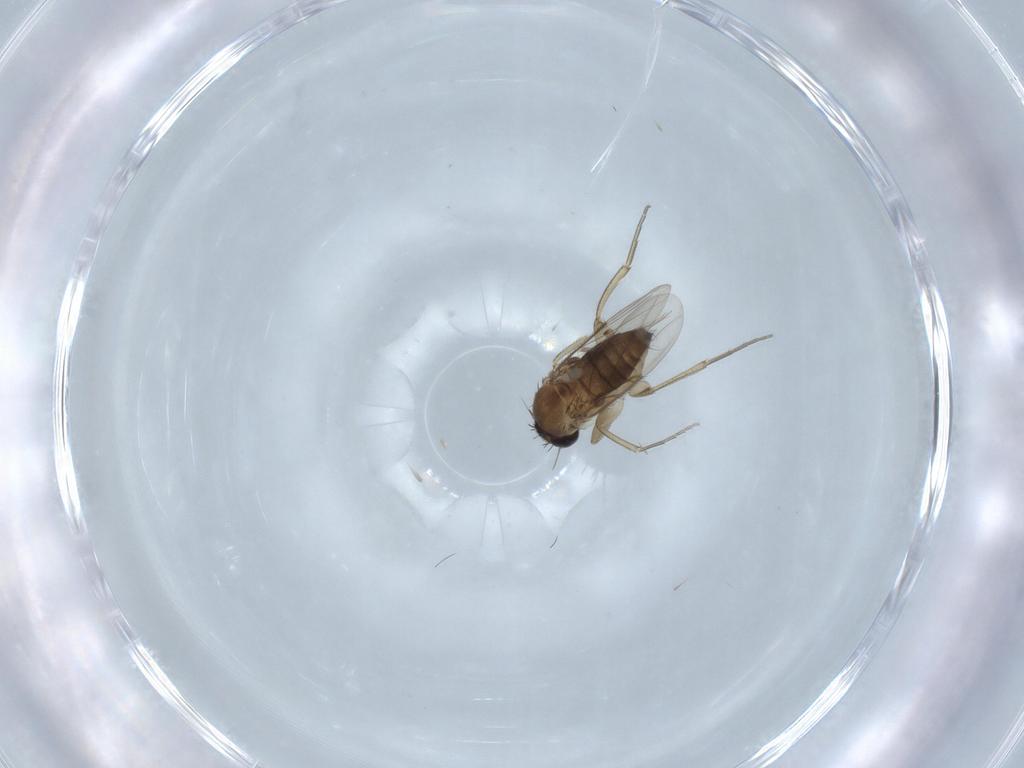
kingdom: Animalia
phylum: Arthropoda
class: Insecta
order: Diptera
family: Phoridae
